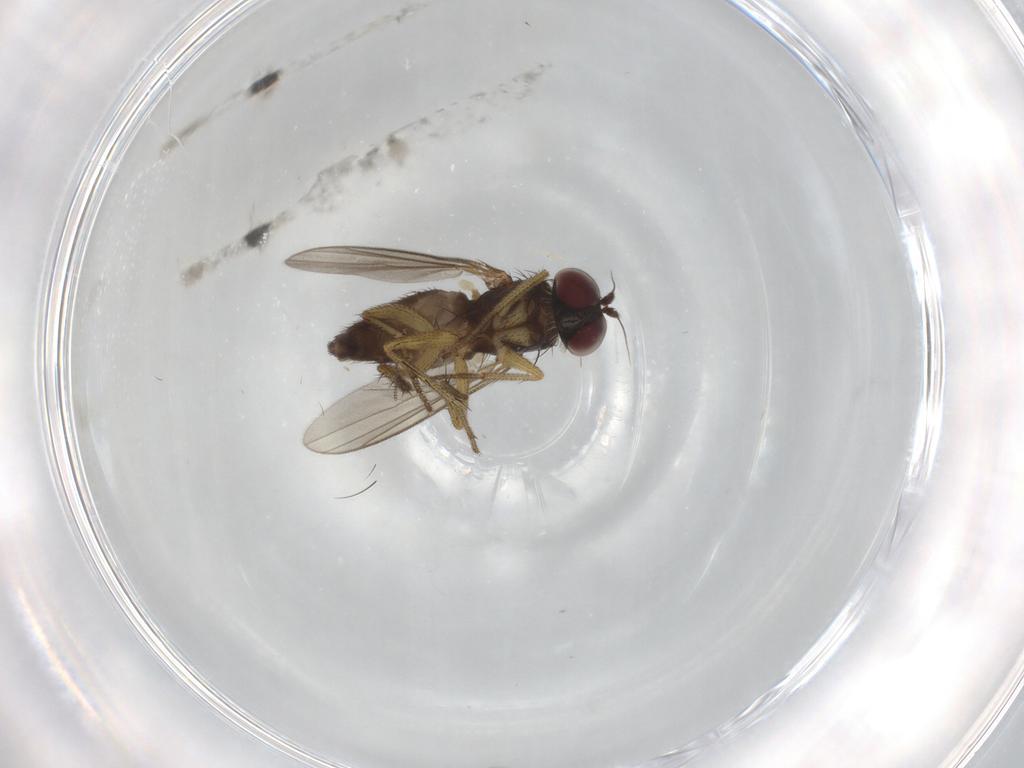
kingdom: Animalia
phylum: Arthropoda
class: Insecta
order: Diptera
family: Dolichopodidae
